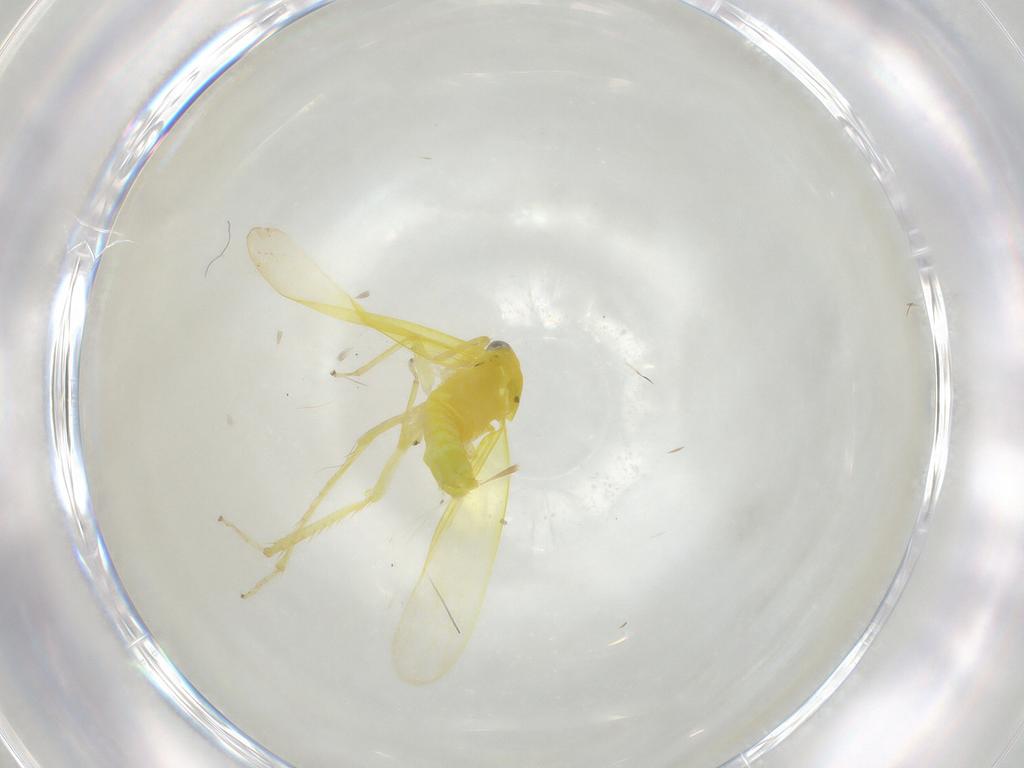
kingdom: Animalia
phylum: Arthropoda
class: Insecta
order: Hemiptera
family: Cicadellidae
